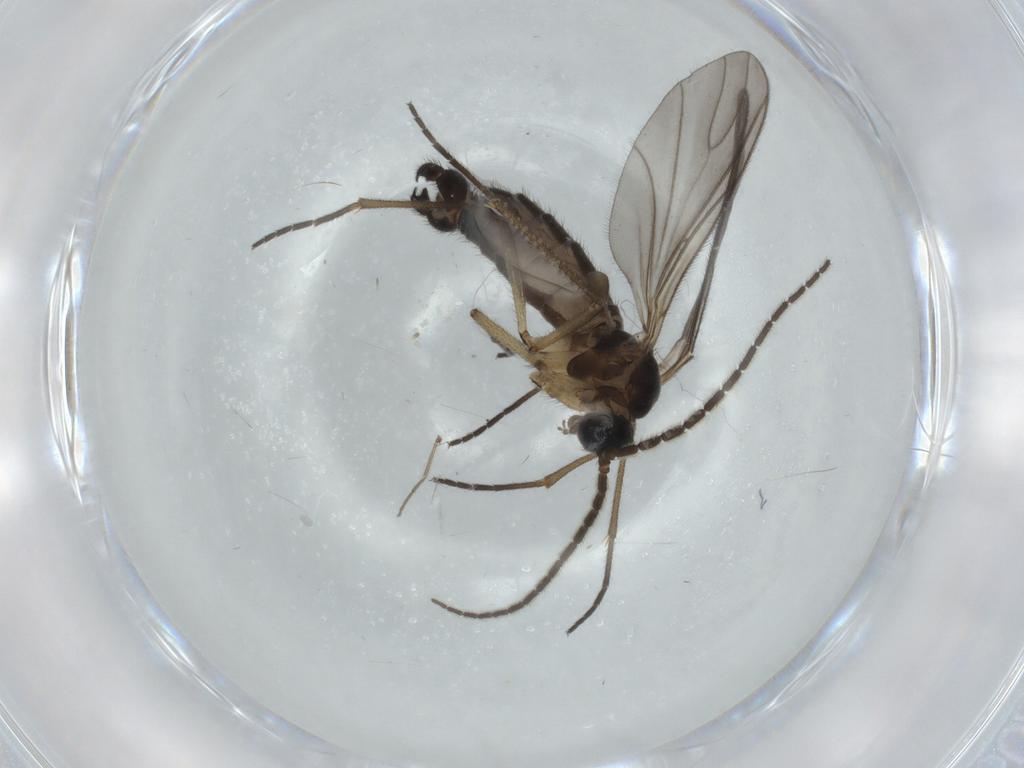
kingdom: Animalia
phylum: Arthropoda
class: Insecta
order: Diptera
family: Sciaridae
